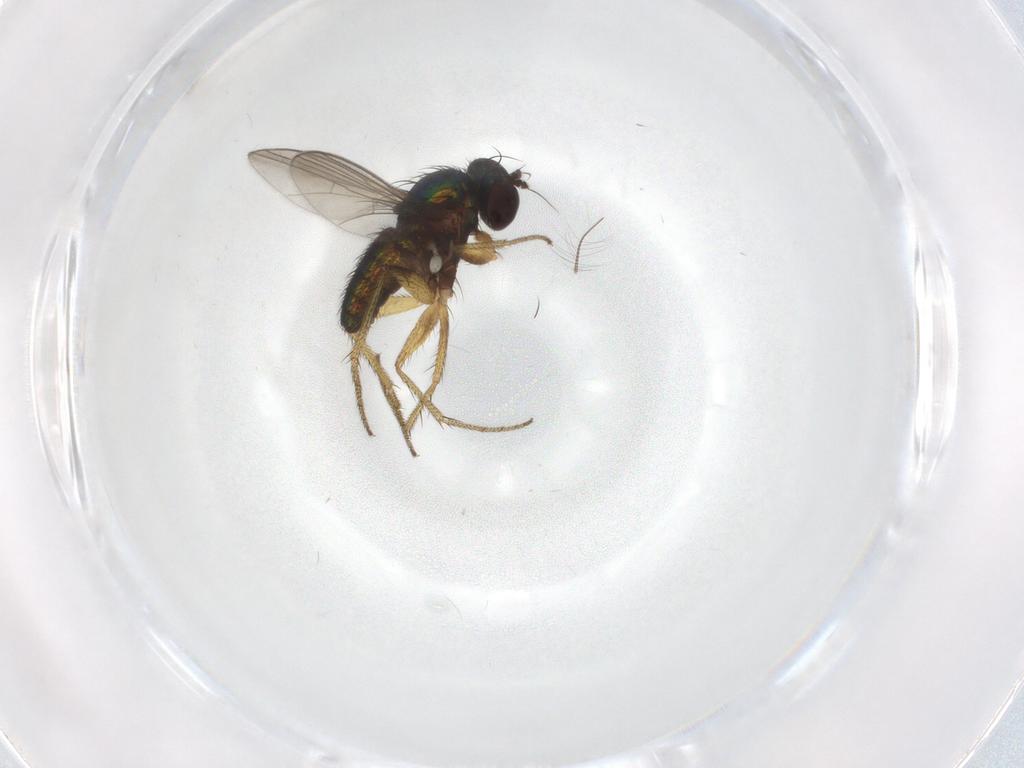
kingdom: Animalia
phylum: Arthropoda
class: Insecta
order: Diptera
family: Chironomidae
